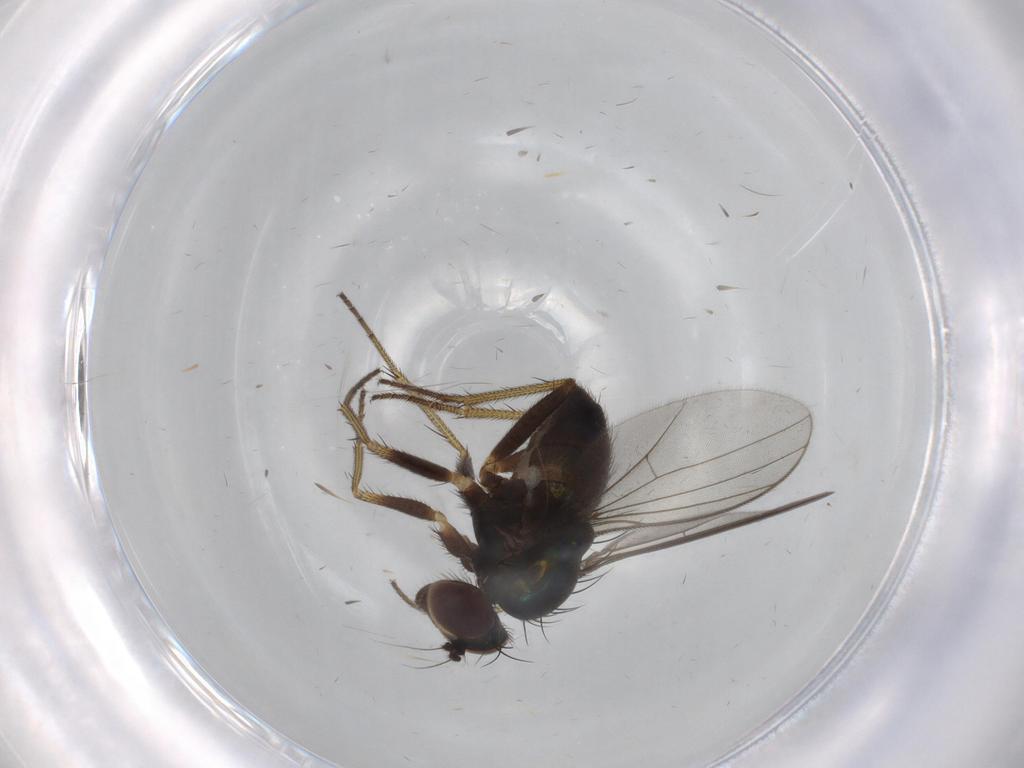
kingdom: Animalia
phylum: Arthropoda
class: Insecta
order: Diptera
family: Dolichopodidae
